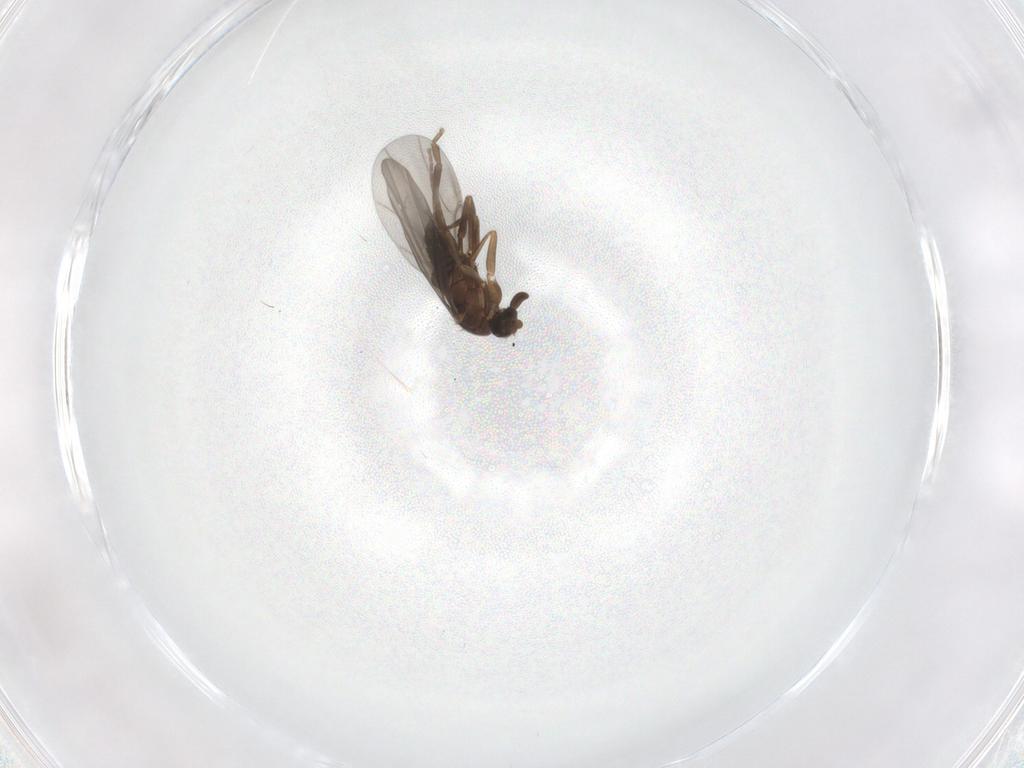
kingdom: Animalia
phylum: Arthropoda
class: Insecta
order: Diptera
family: Chironomidae
